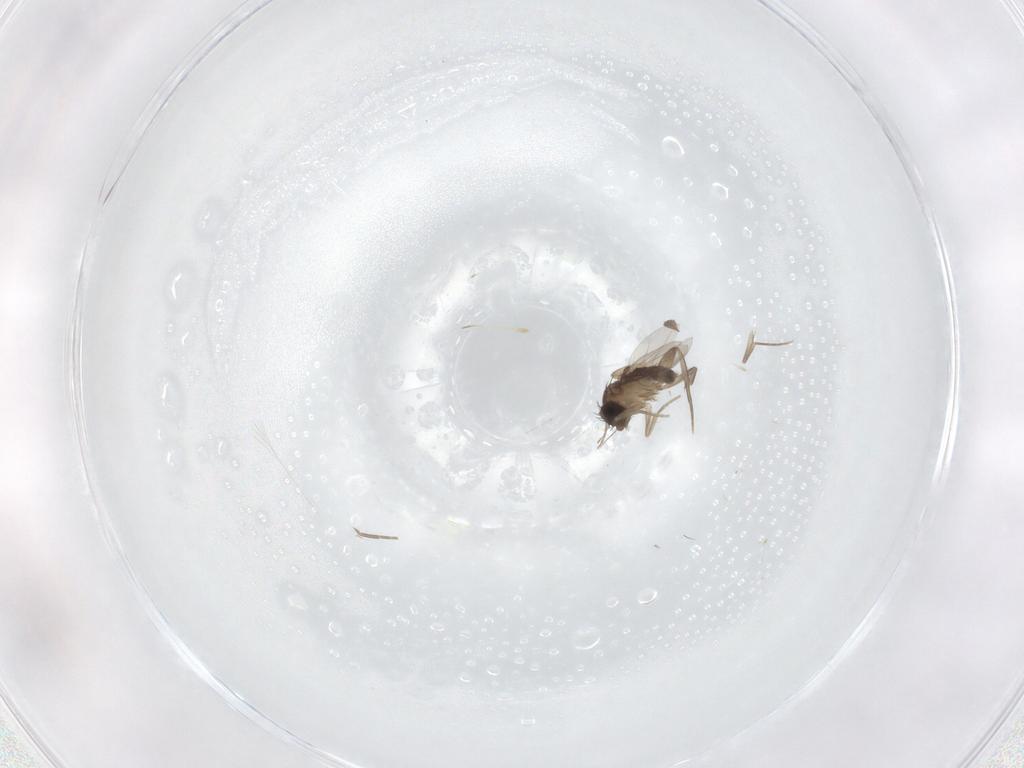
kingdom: Animalia
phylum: Arthropoda
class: Insecta
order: Diptera
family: Phoridae
